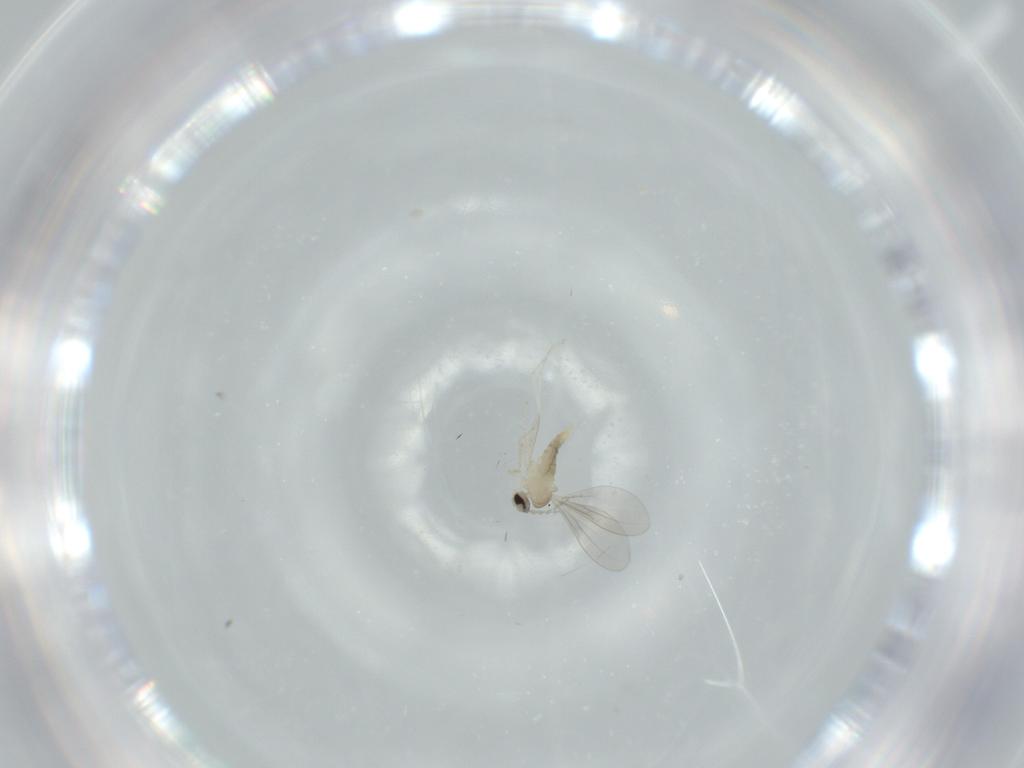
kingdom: Animalia
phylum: Arthropoda
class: Insecta
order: Diptera
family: Cecidomyiidae
